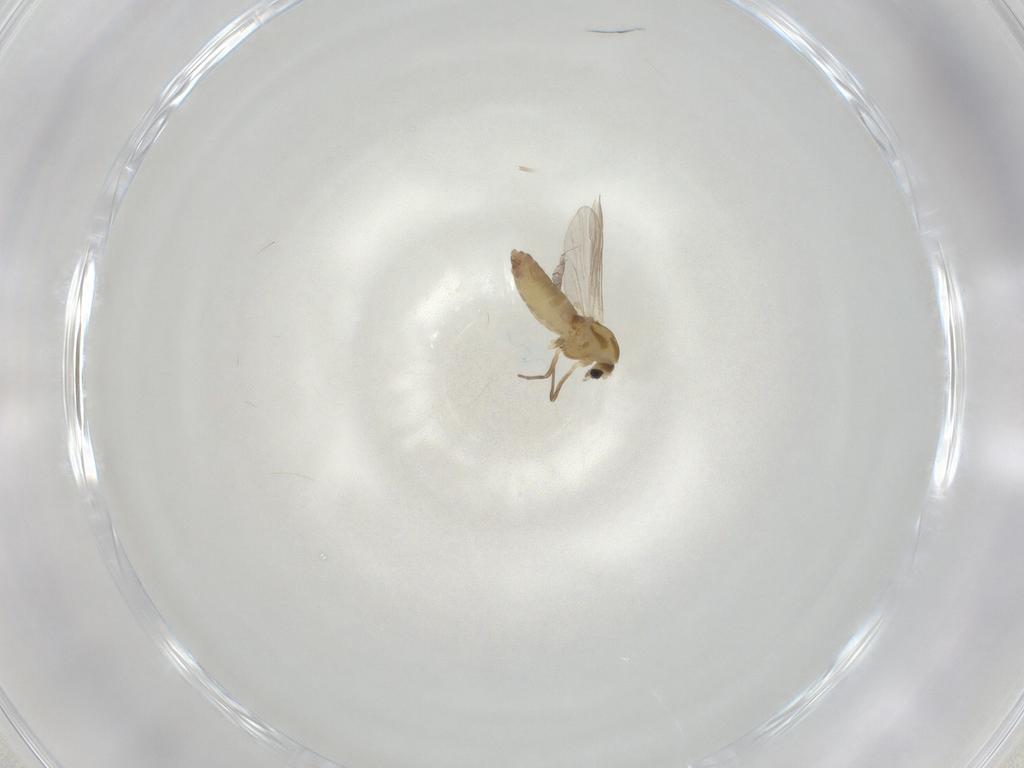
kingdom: Animalia
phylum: Arthropoda
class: Insecta
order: Diptera
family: Chironomidae
